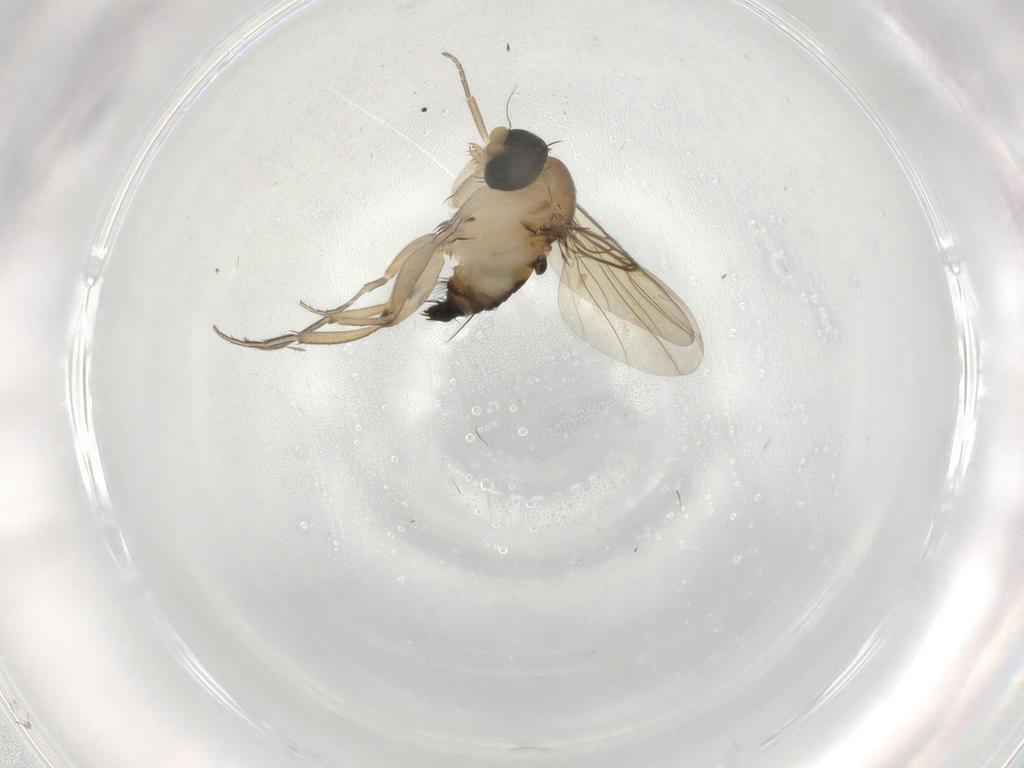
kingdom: Animalia
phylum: Arthropoda
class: Insecta
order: Diptera
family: Phoridae
